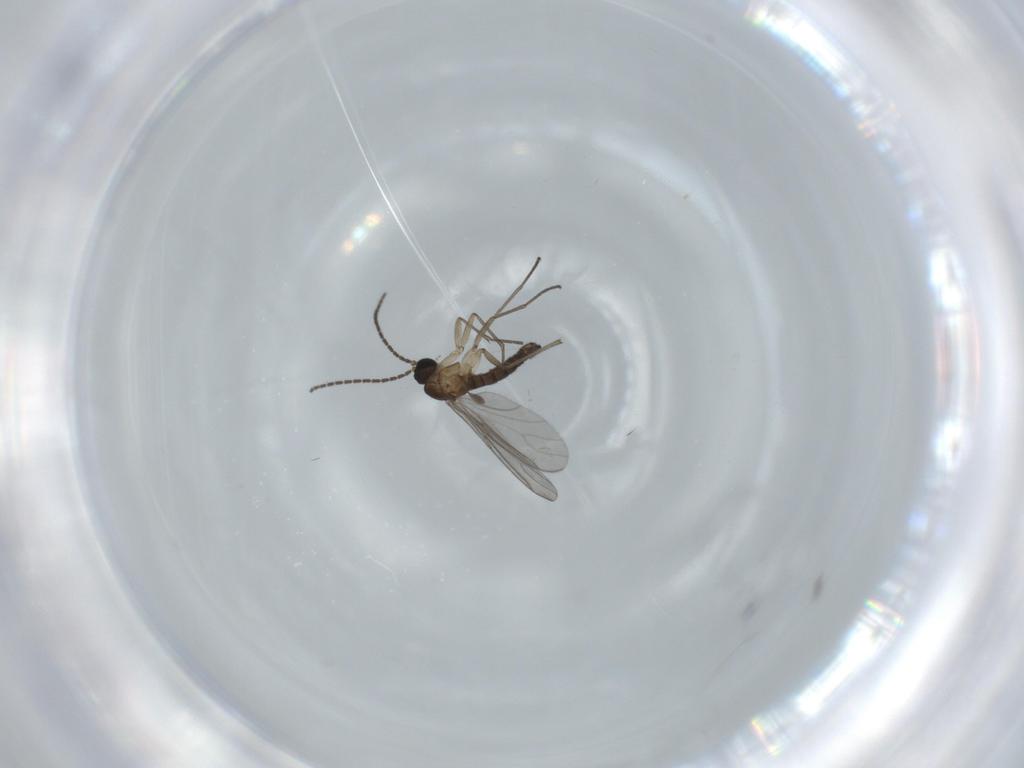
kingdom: Animalia
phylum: Arthropoda
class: Insecta
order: Diptera
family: Sciaridae
